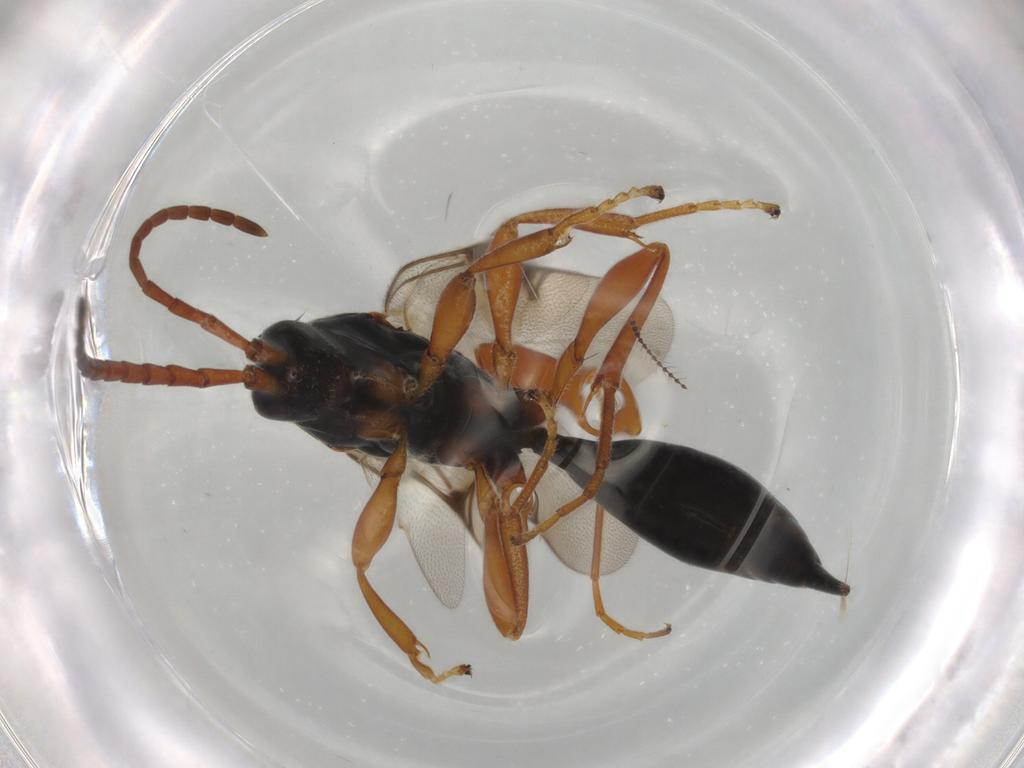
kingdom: Animalia
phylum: Arthropoda
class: Insecta
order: Hymenoptera
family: Proctotrupidae
